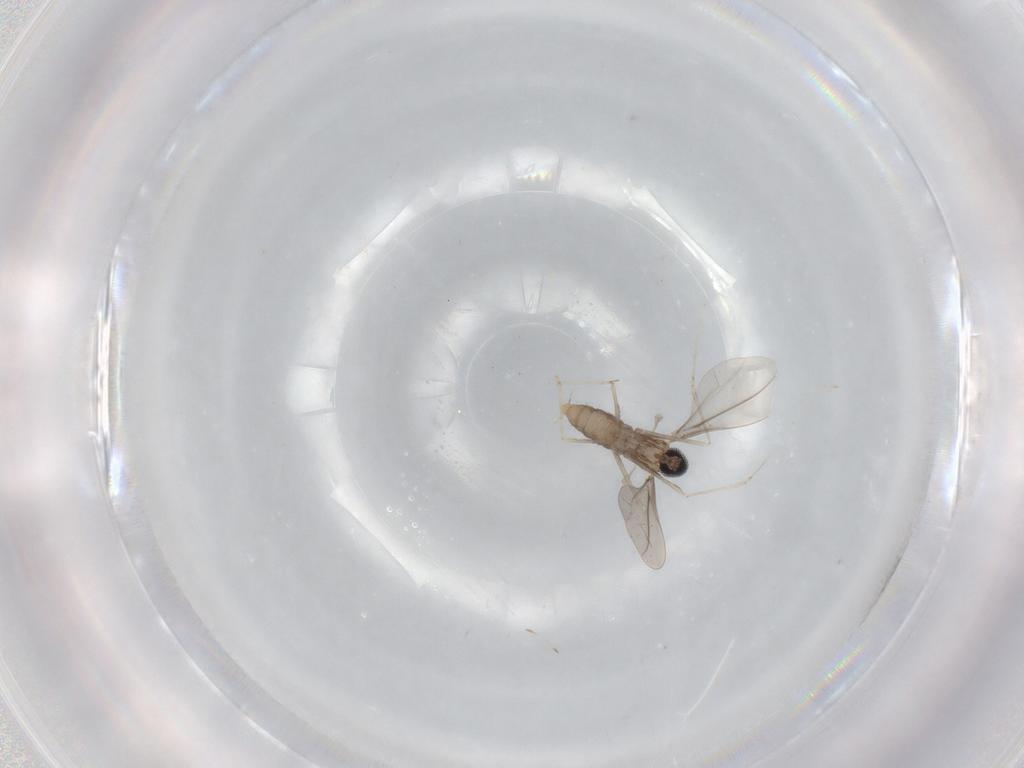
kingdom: Animalia
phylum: Arthropoda
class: Insecta
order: Diptera
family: Cecidomyiidae
